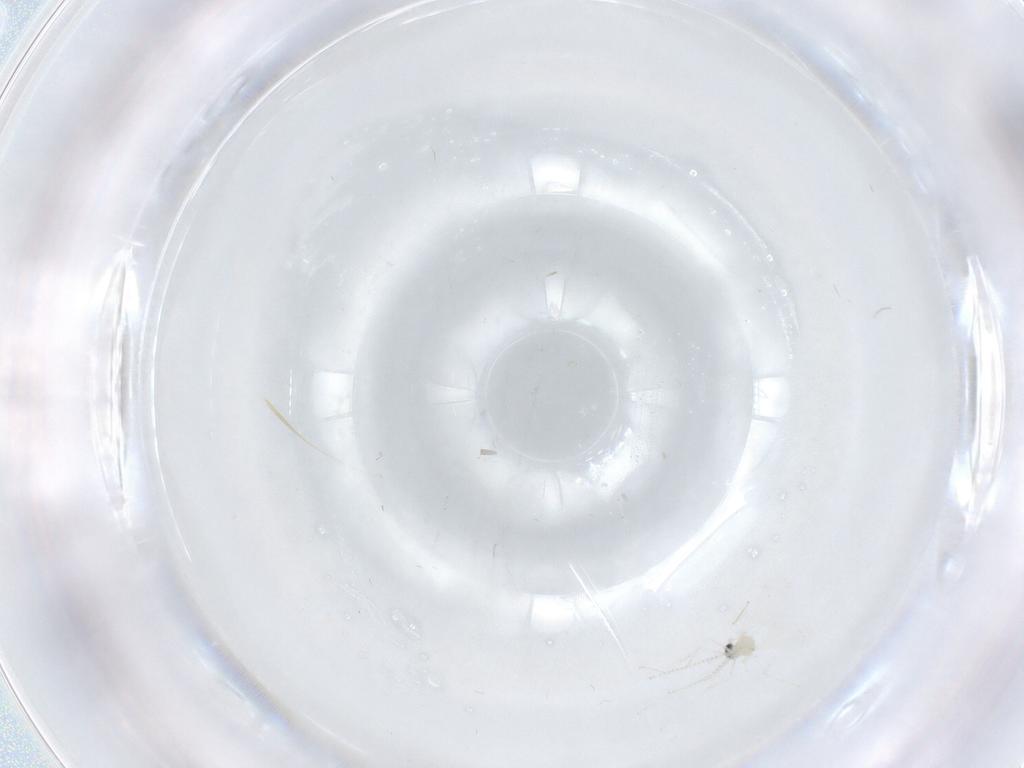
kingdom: Animalia
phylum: Arthropoda
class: Insecta
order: Diptera
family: Cecidomyiidae
